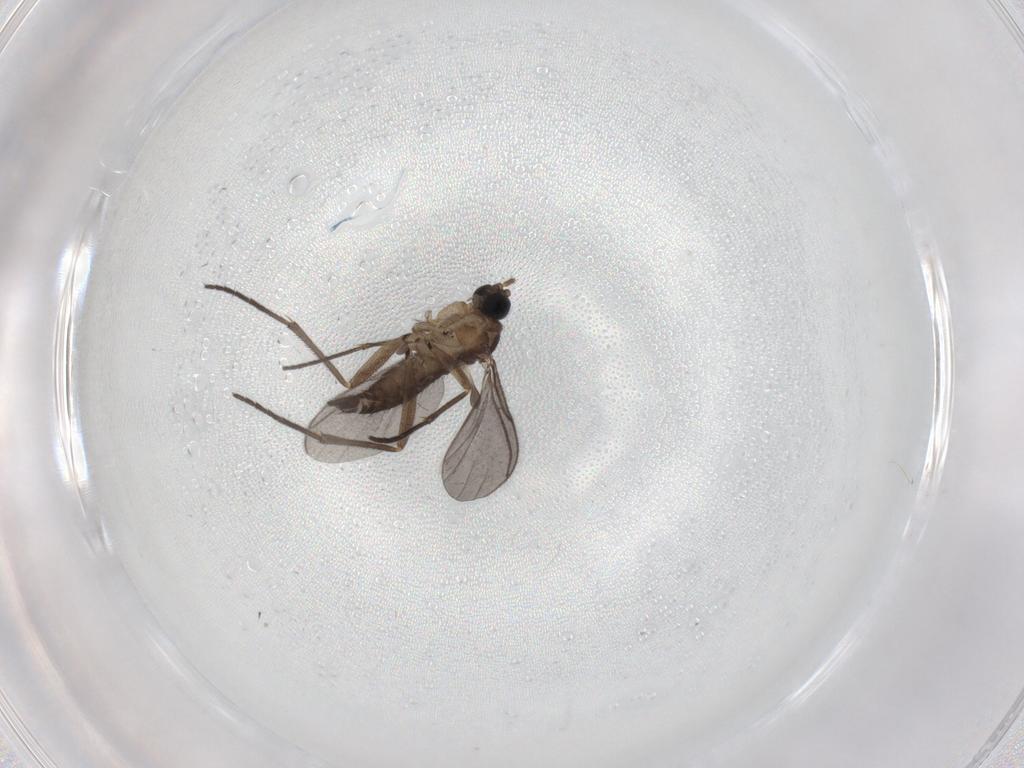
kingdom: Animalia
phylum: Arthropoda
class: Insecta
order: Diptera
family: Sciaridae
